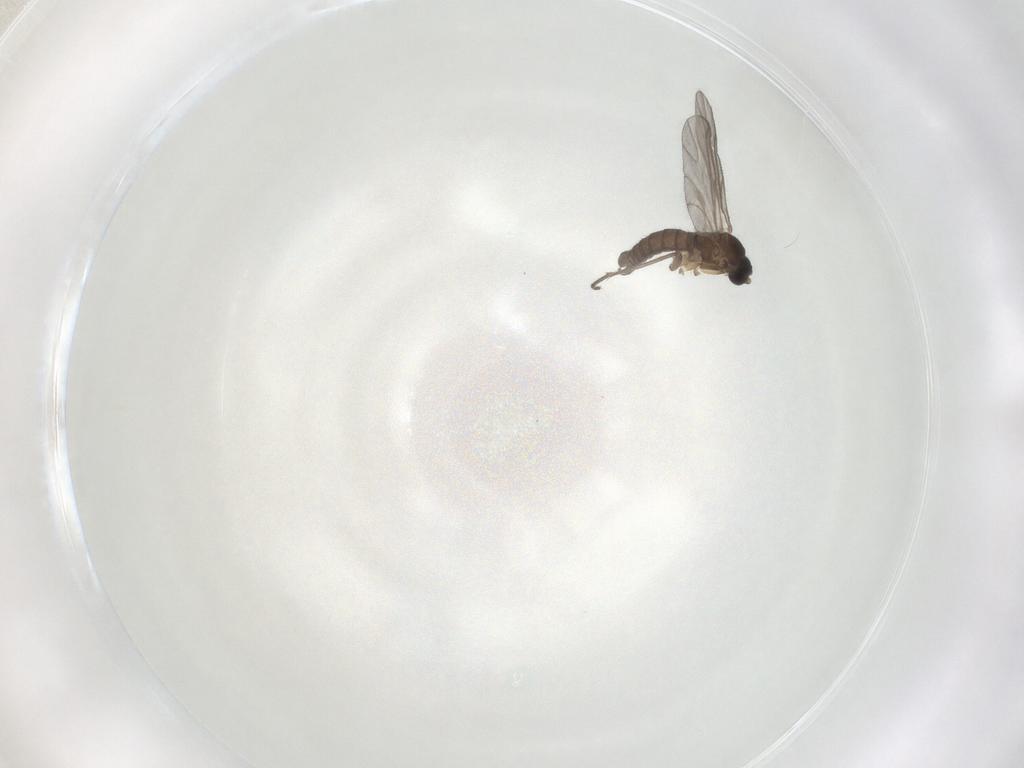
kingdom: Animalia
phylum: Arthropoda
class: Insecta
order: Diptera
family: Sciaridae
